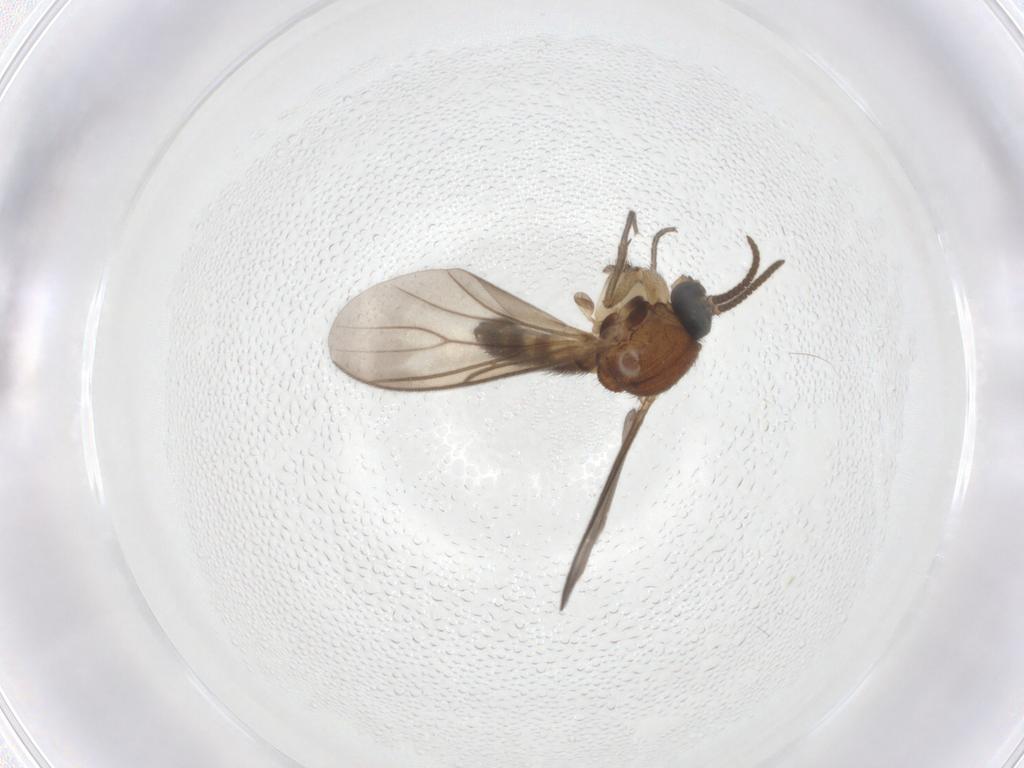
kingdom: Animalia
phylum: Arthropoda
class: Insecta
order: Diptera
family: Mycetophilidae
